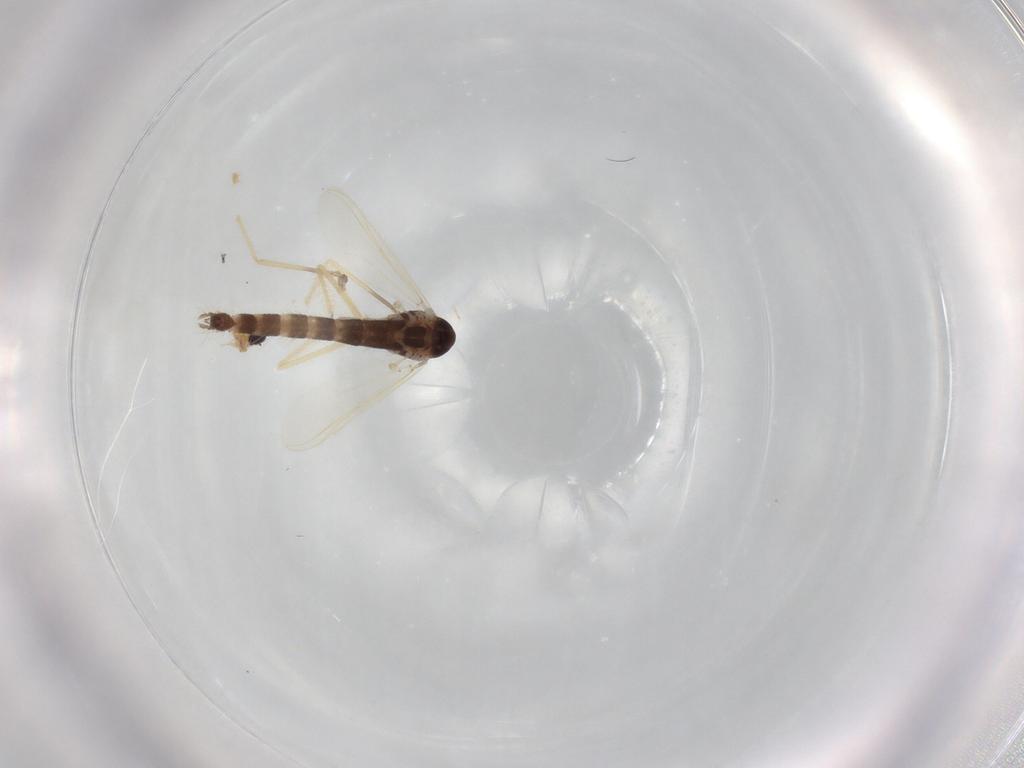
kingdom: Animalia
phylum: Arthropoda
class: Insecta
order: Diptera
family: Chironomidae
